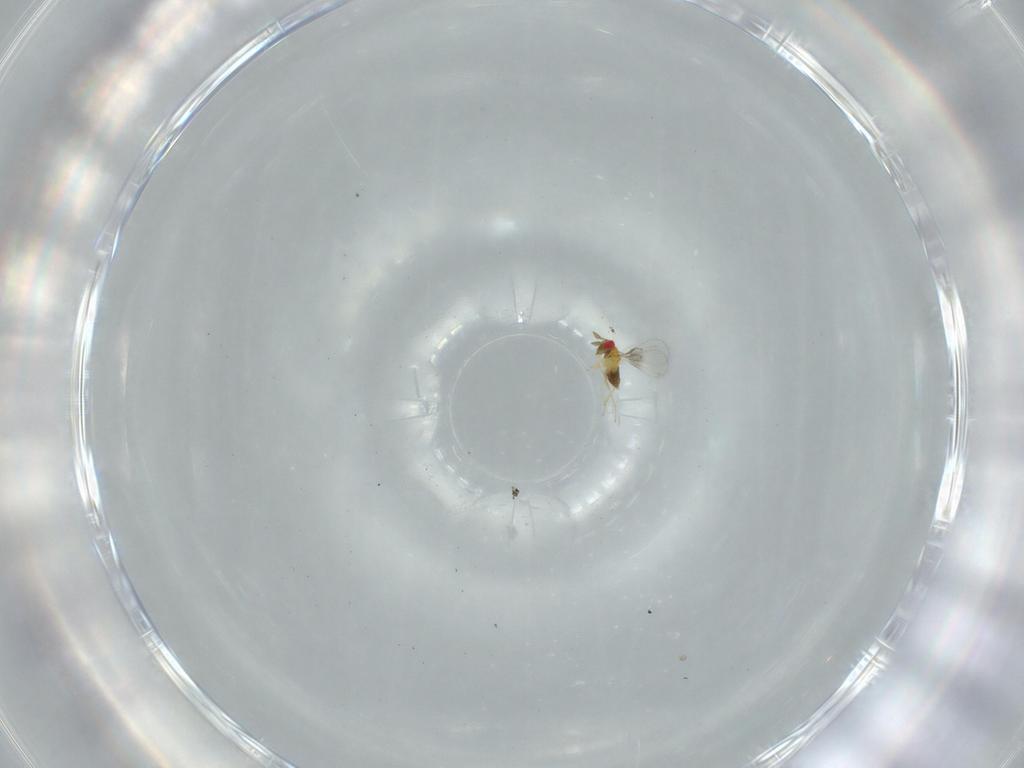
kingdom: Animalia
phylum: Arthropoda
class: Insecta
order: Hymenoptera
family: Trichogrammatidae
